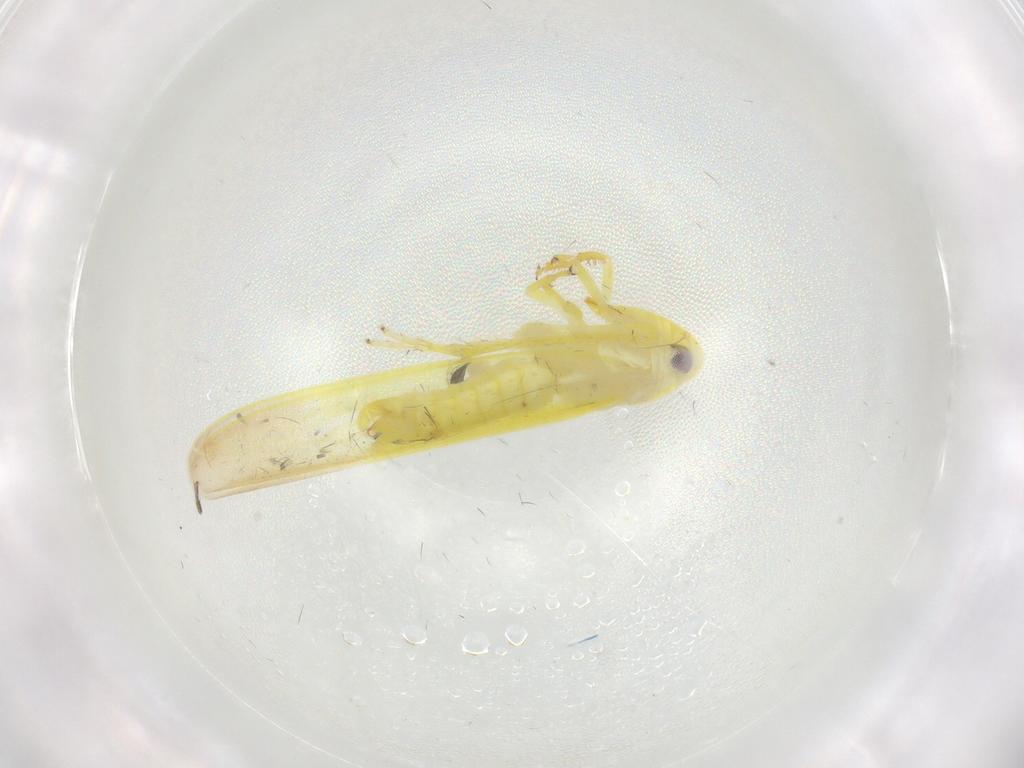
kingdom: Animalia
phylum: Arthropoda
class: Insecta
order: Hemiptera
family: Cicadellidae
